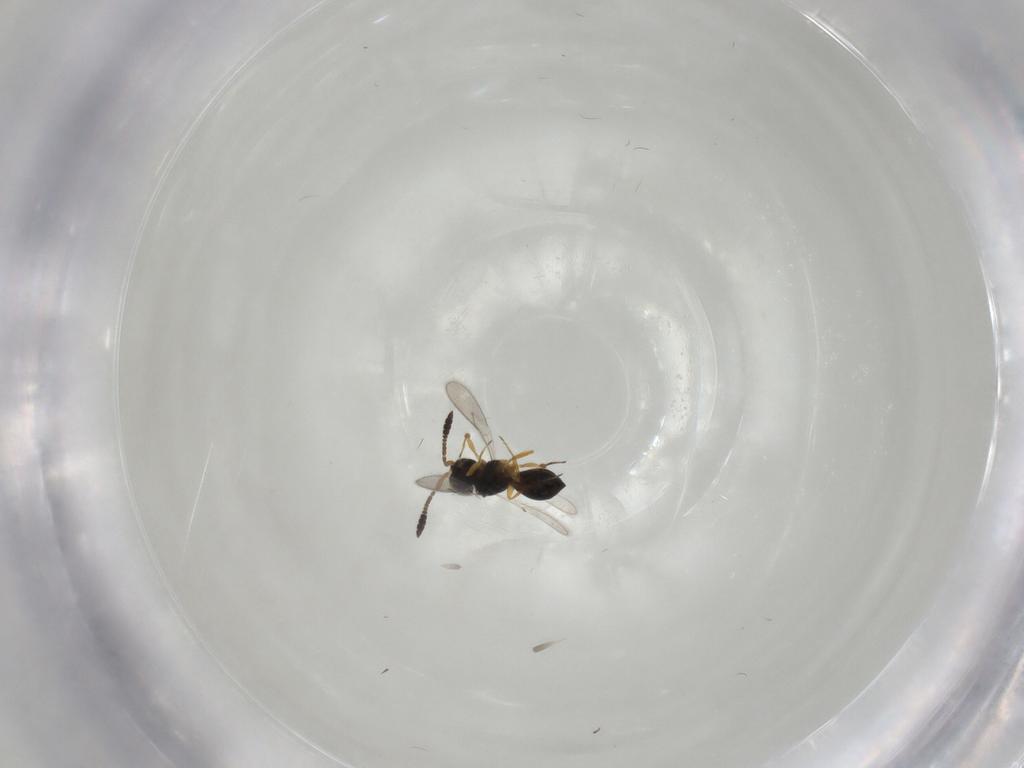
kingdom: Animalia
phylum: Arthropoda
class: Insecta
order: Hymenoptera
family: Scelionidae
